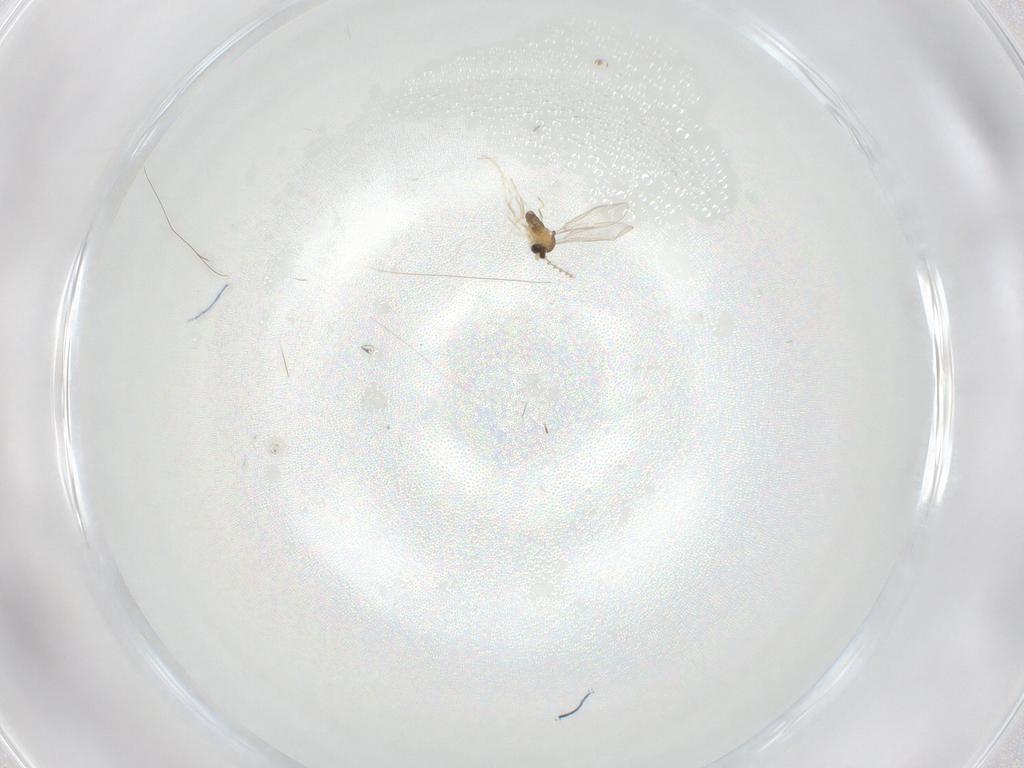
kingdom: Animalia
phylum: Arthropoda
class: Insecta
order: Diptera
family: Cecidomyiidae
